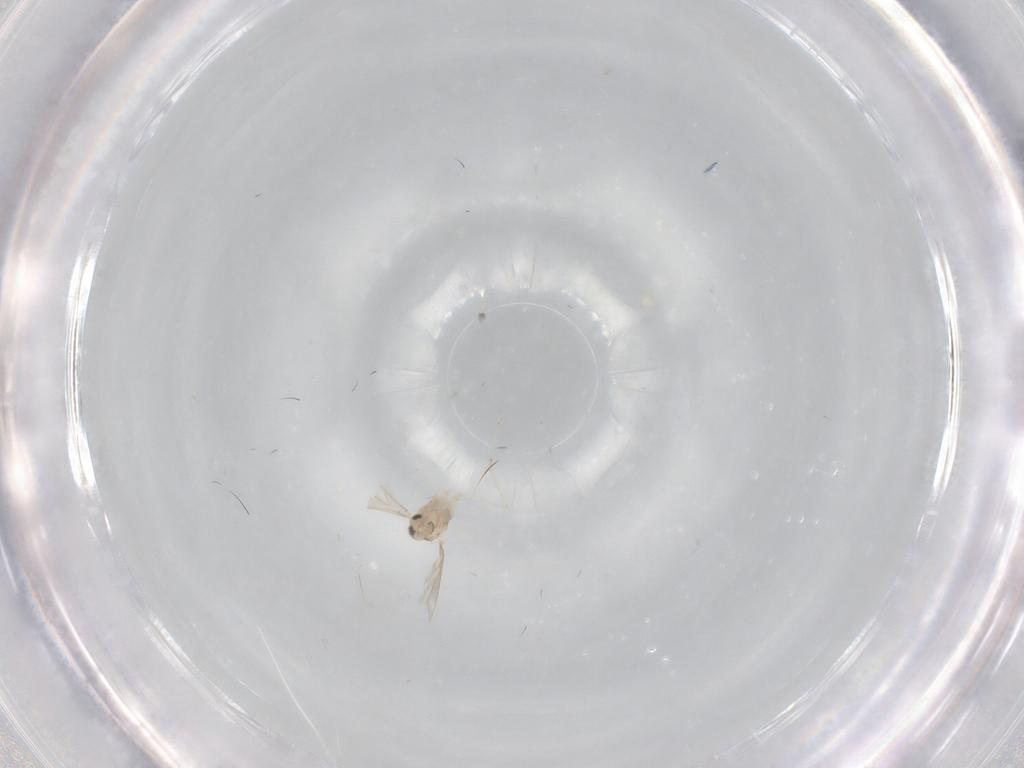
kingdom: Animalia
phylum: Arthropoda
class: Insecta
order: Diptera
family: Cecidomyiidae
